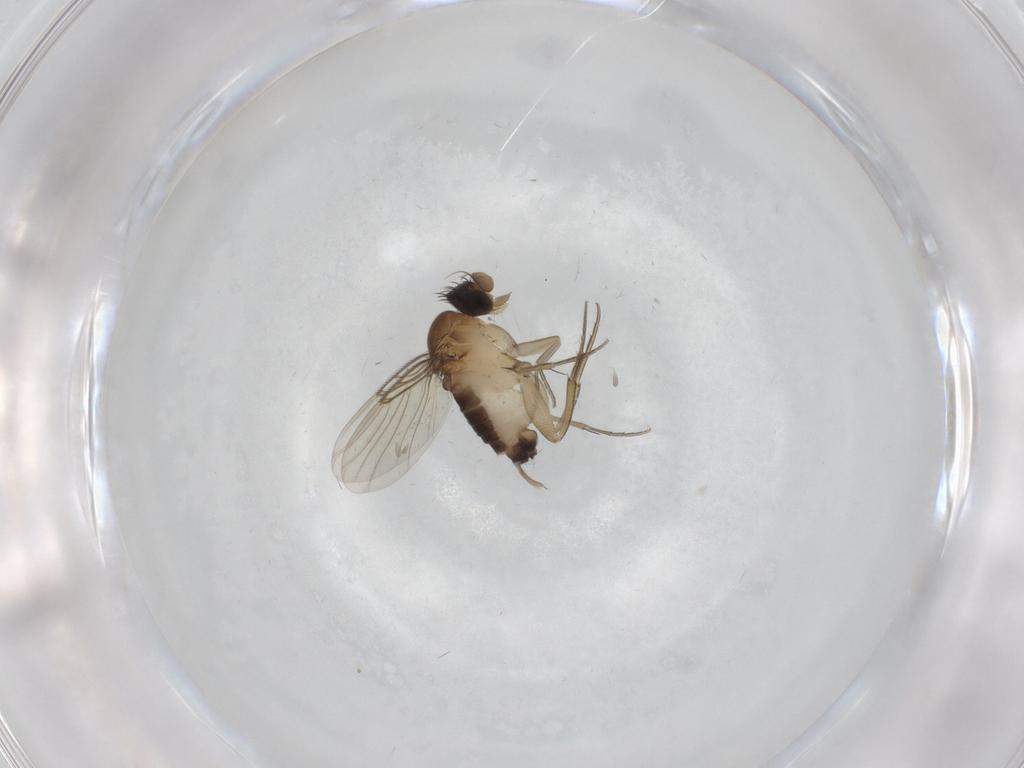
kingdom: Animalia
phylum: Arthropoda
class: Insecta
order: Diptera
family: Phoridae
